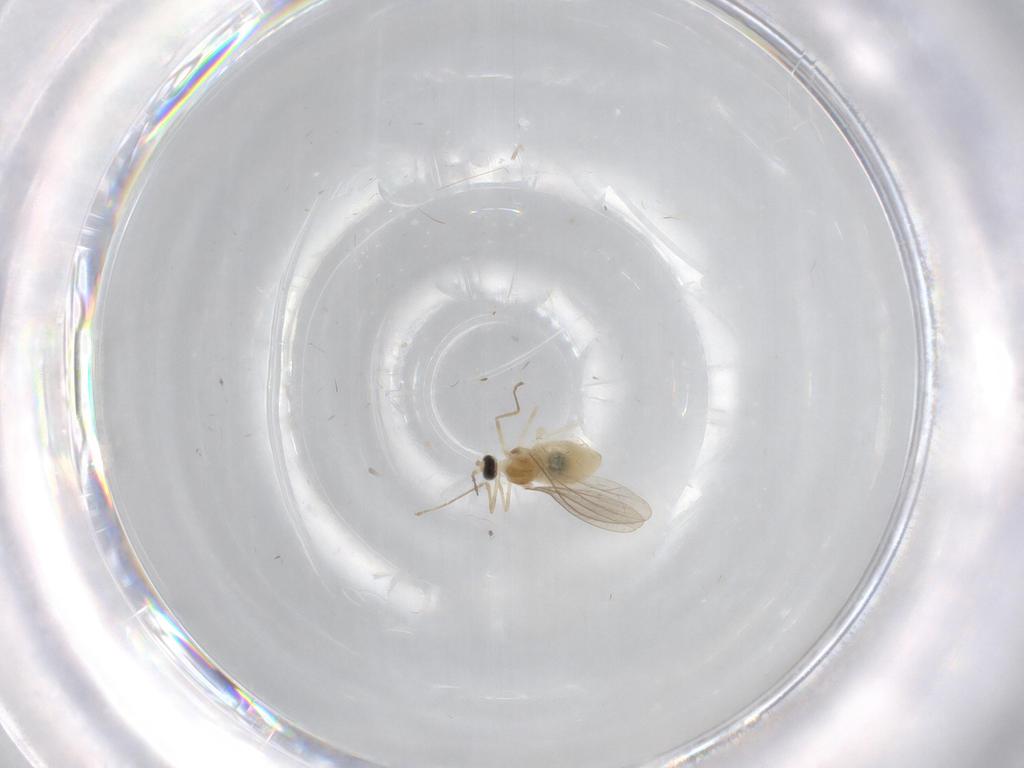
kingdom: Animalia
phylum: Arthropoda
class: Insecta
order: Diptera
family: Cecidomyiidae
